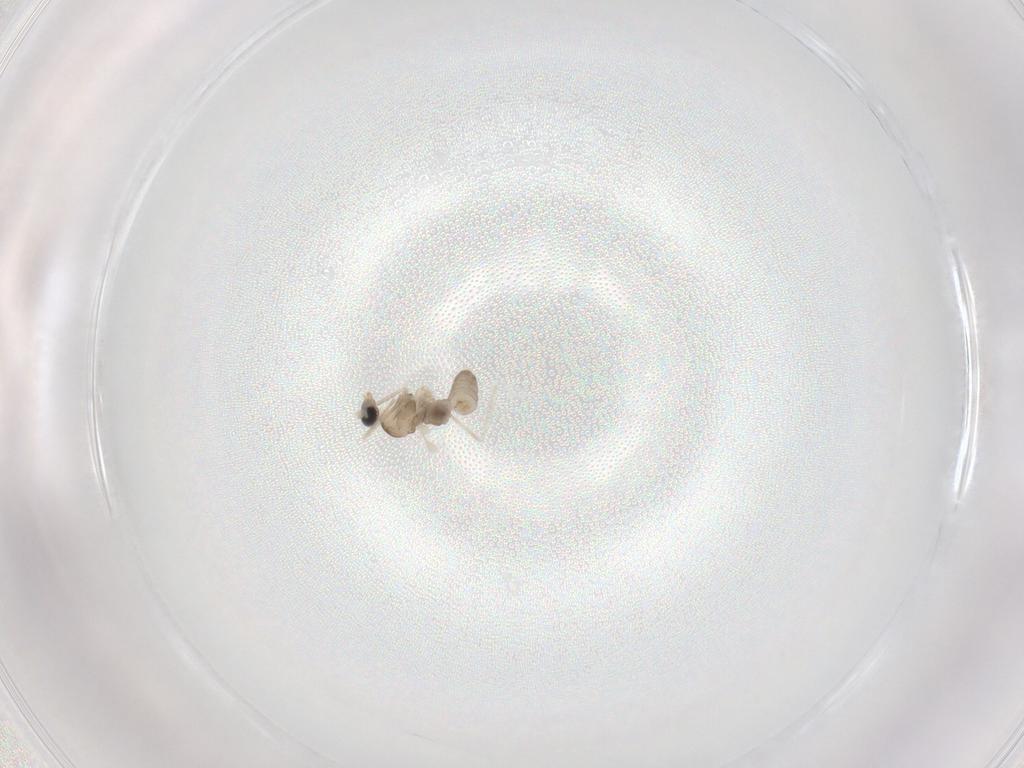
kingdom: Animalia
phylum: Arthropoda
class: Insecta
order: Diptera
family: Cecidomyiidae
